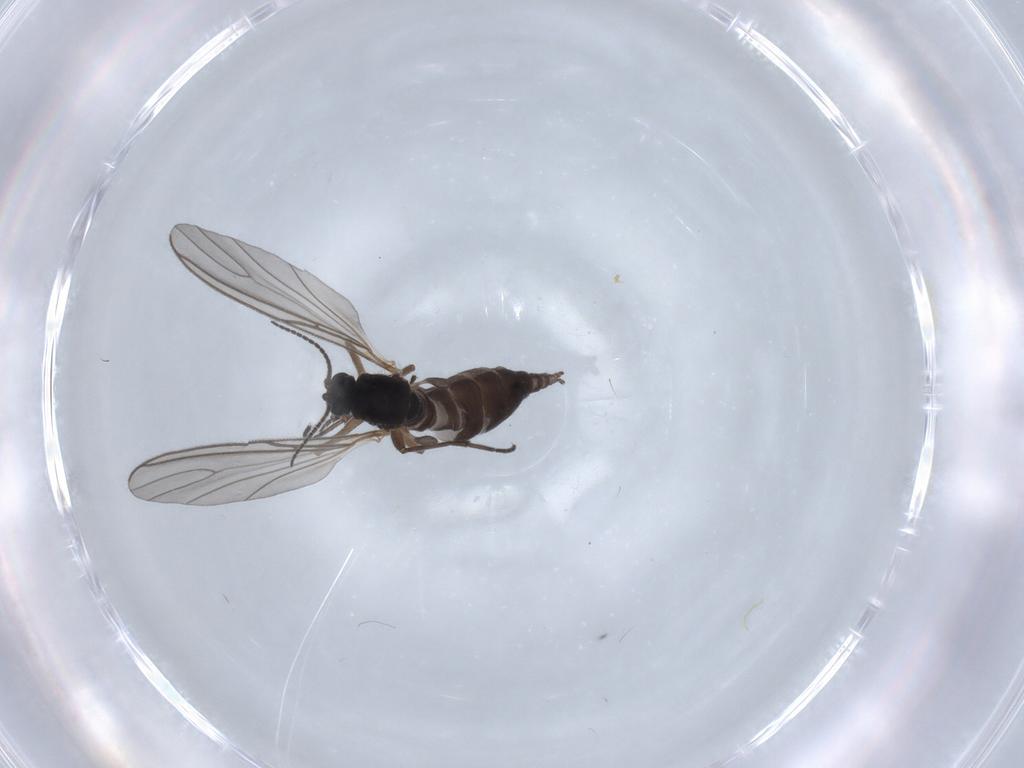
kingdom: Animalia
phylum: Arthropoda
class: Insecta
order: Diptera
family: Sciaridae
